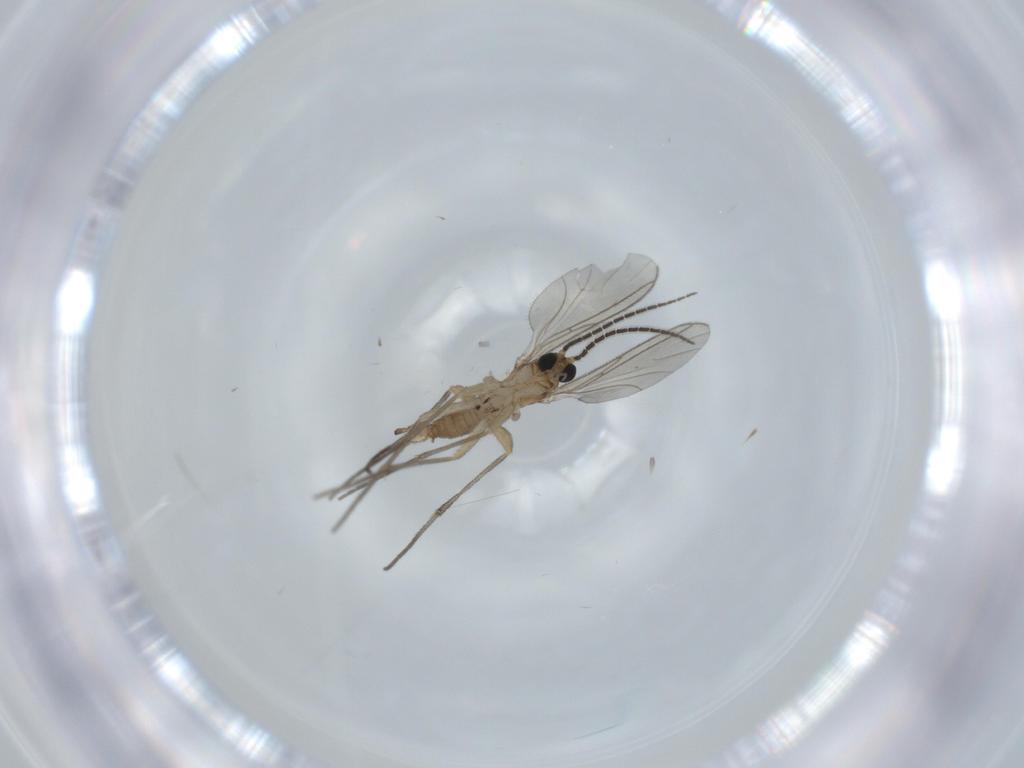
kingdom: Animalia
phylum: Arthropoda
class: Insecta
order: Diptera
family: Sciaridae
